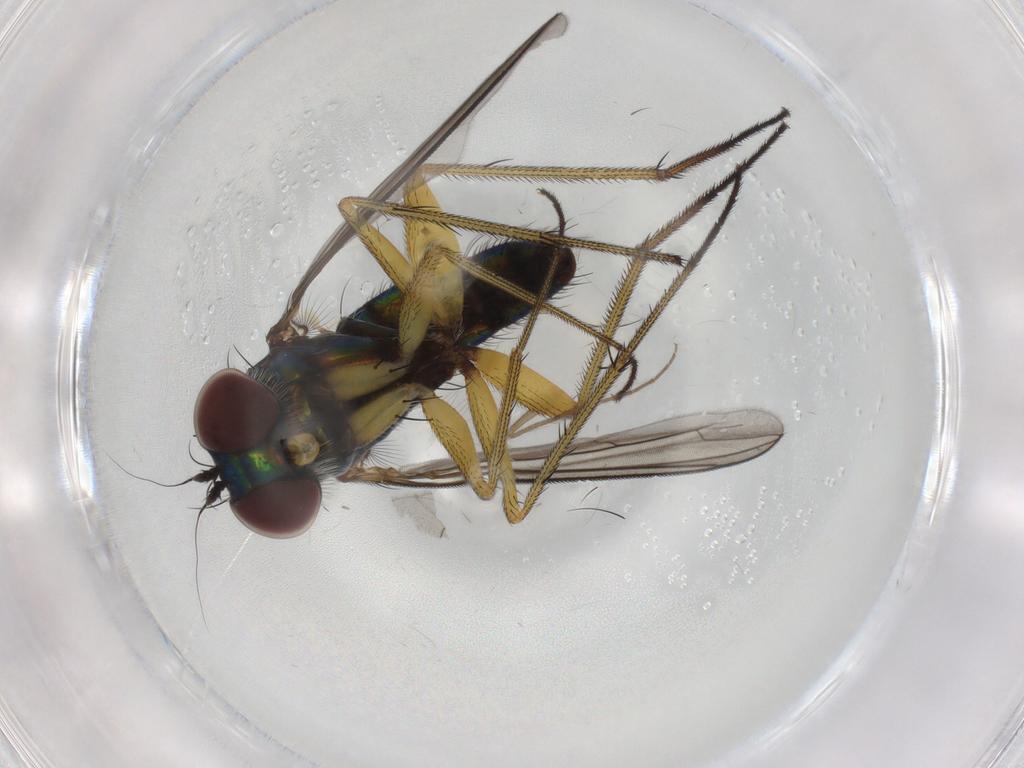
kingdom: Animalia
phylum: Arthropoda
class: Insecta
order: Diptera
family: Dolichopodidae
